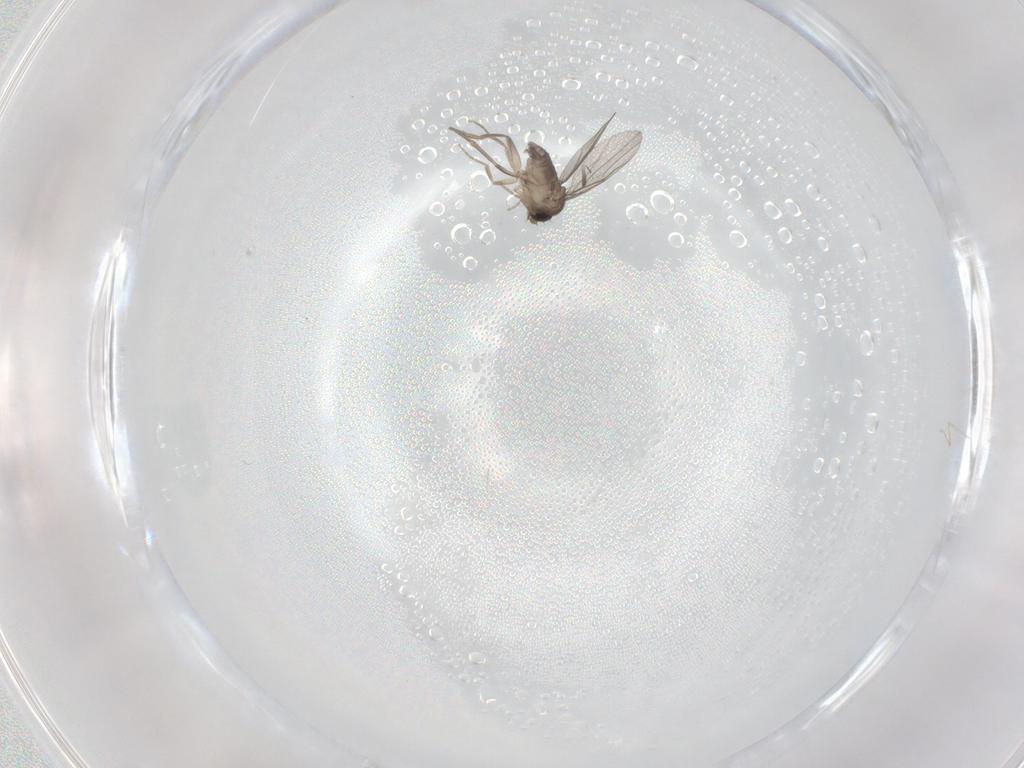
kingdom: Animalia
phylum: Arthropoda
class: Insecta
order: Diptera
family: Cecidomyiidae
